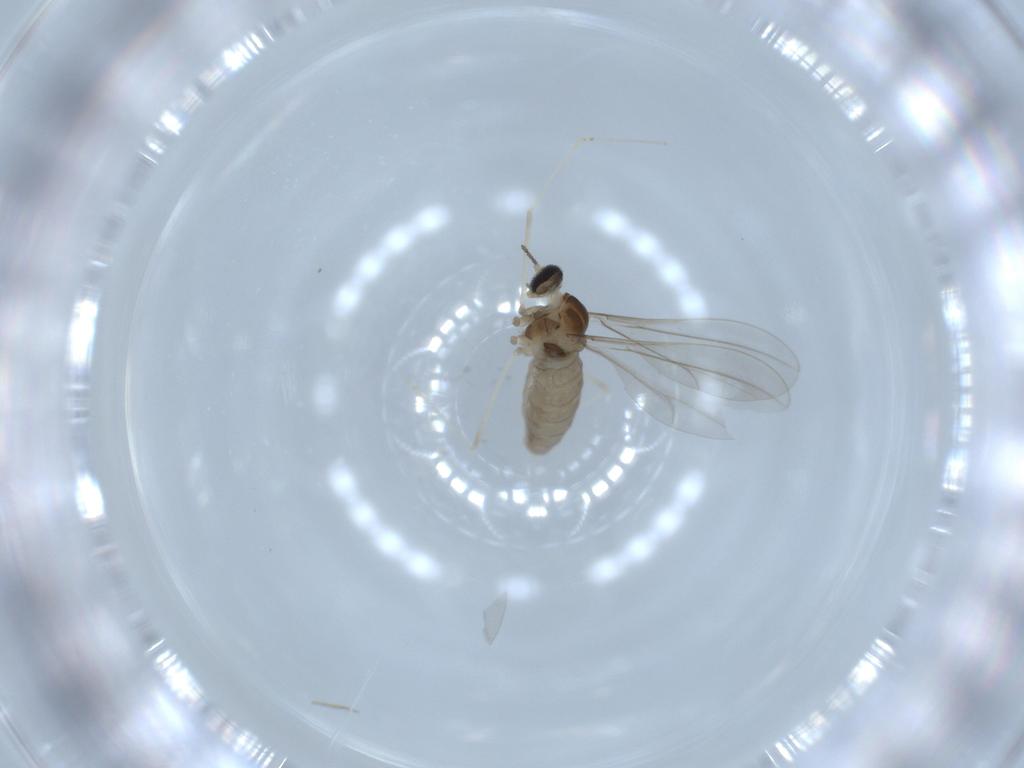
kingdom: Animalia
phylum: Arthropoda
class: Insecta
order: Diptera
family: Cecidomyiidae
